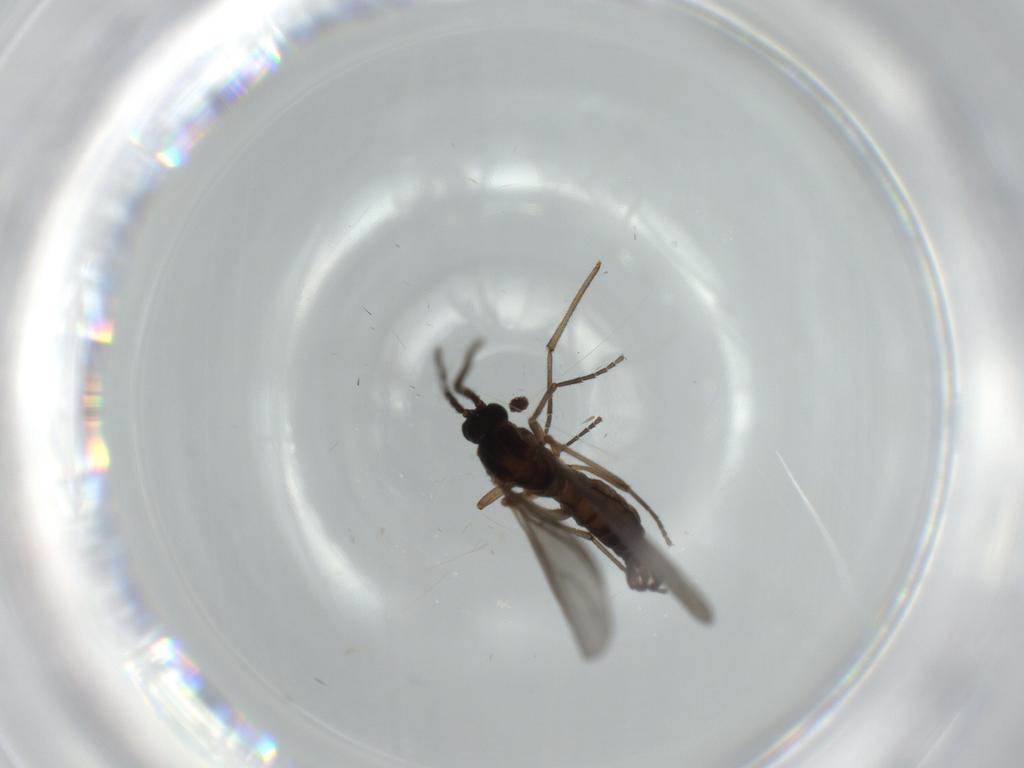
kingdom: Animalia
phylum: Arthropoda
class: Insecta
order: Diptera
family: Sciaridae
